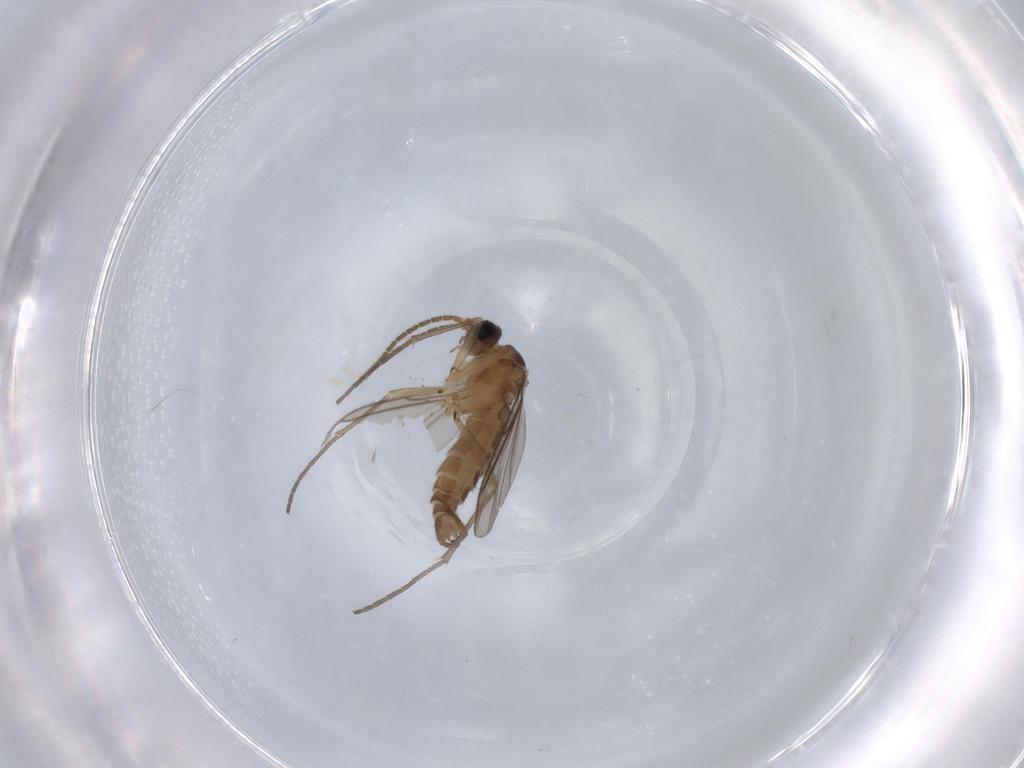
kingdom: Animalia
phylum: Arthropoda
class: Insecta
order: Diptera
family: Sciaridae
